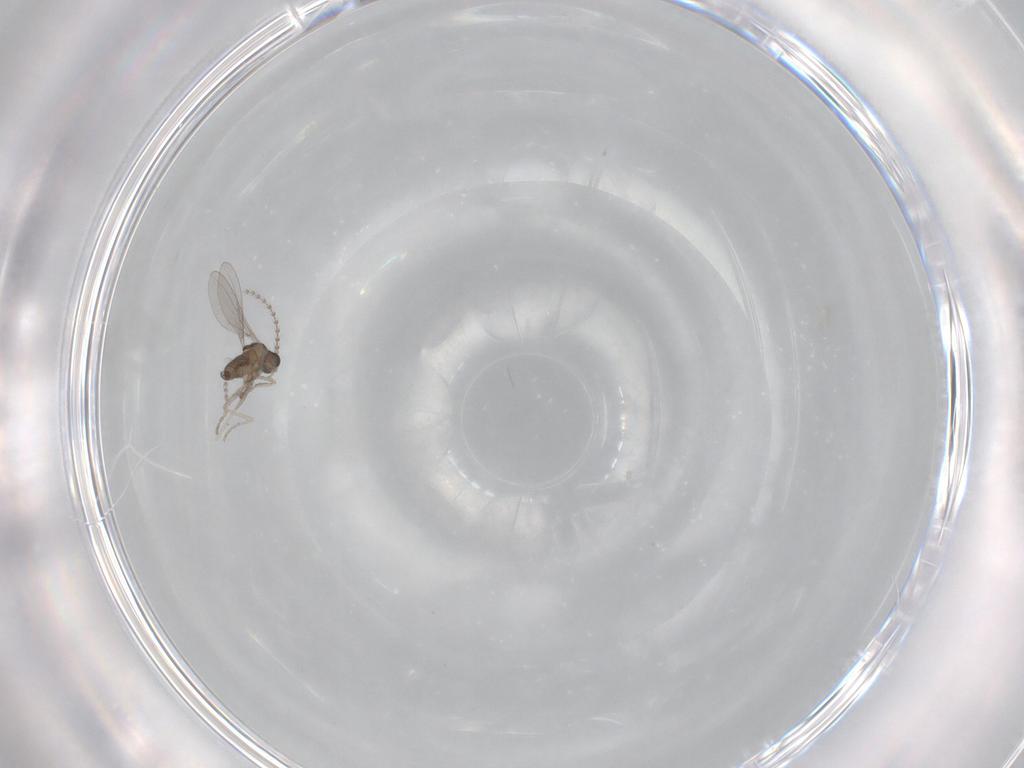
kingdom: Animalia
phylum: Arthropoda
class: Insecta
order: Diptera
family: Cecidomyiidae
